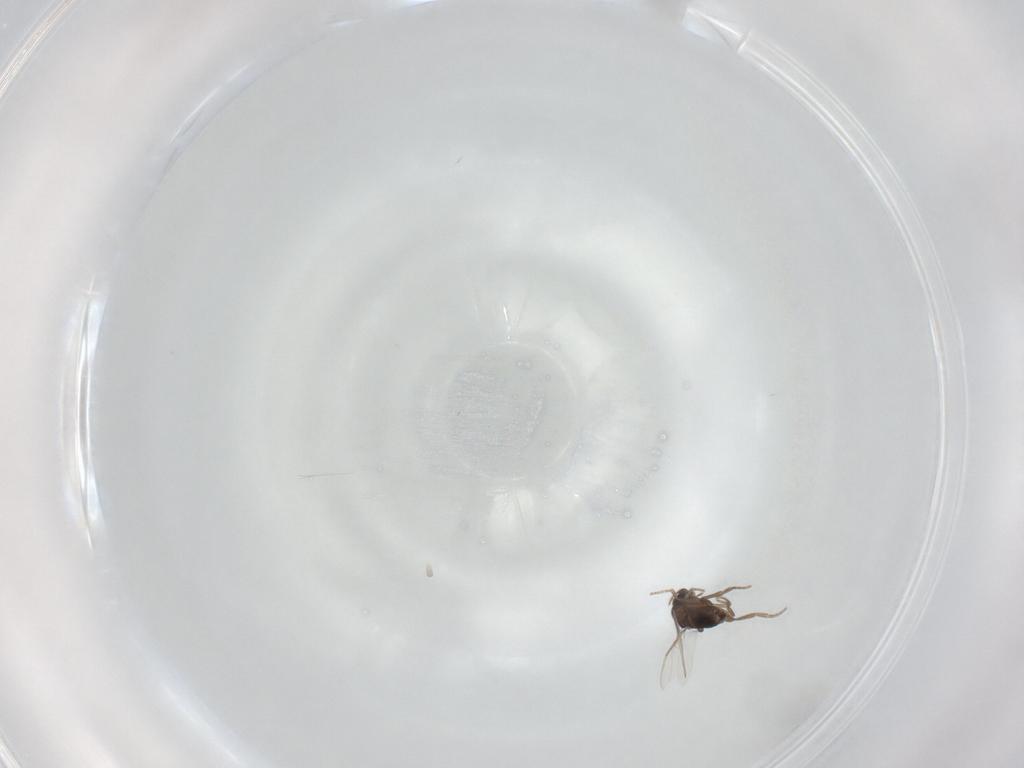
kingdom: Animalia
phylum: Arthropoda
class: Insecta
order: Diptera
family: Phoridae
